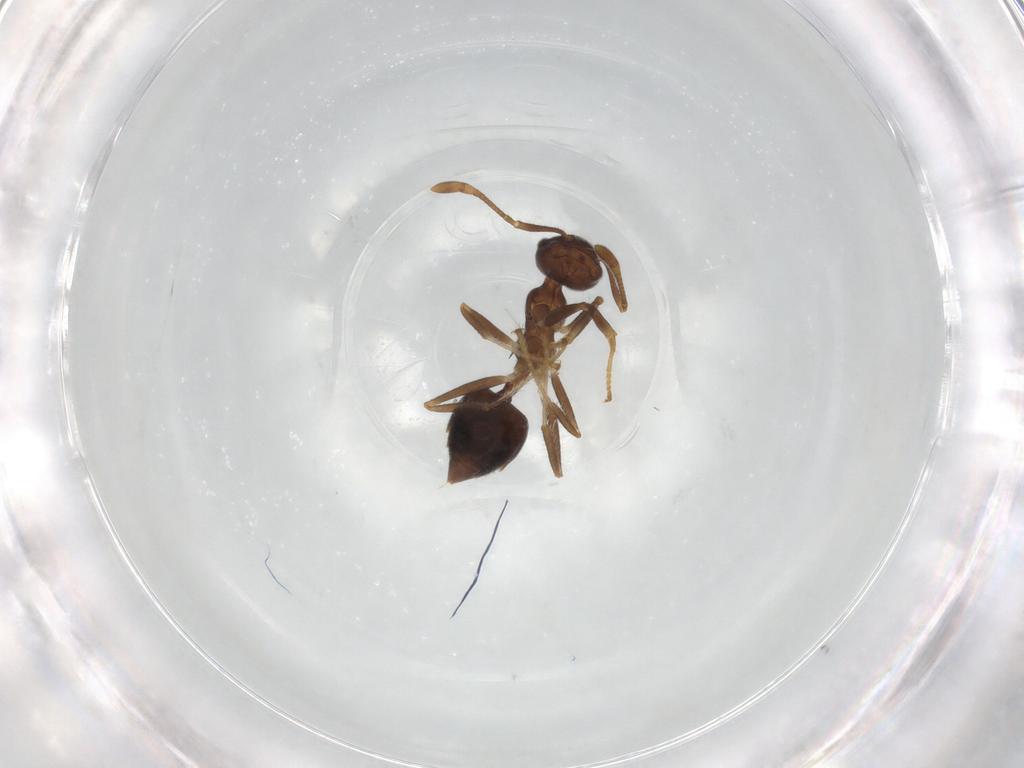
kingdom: Animalia
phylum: Arthropoda
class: Insecta
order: Hymenoptera
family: Formicidae
